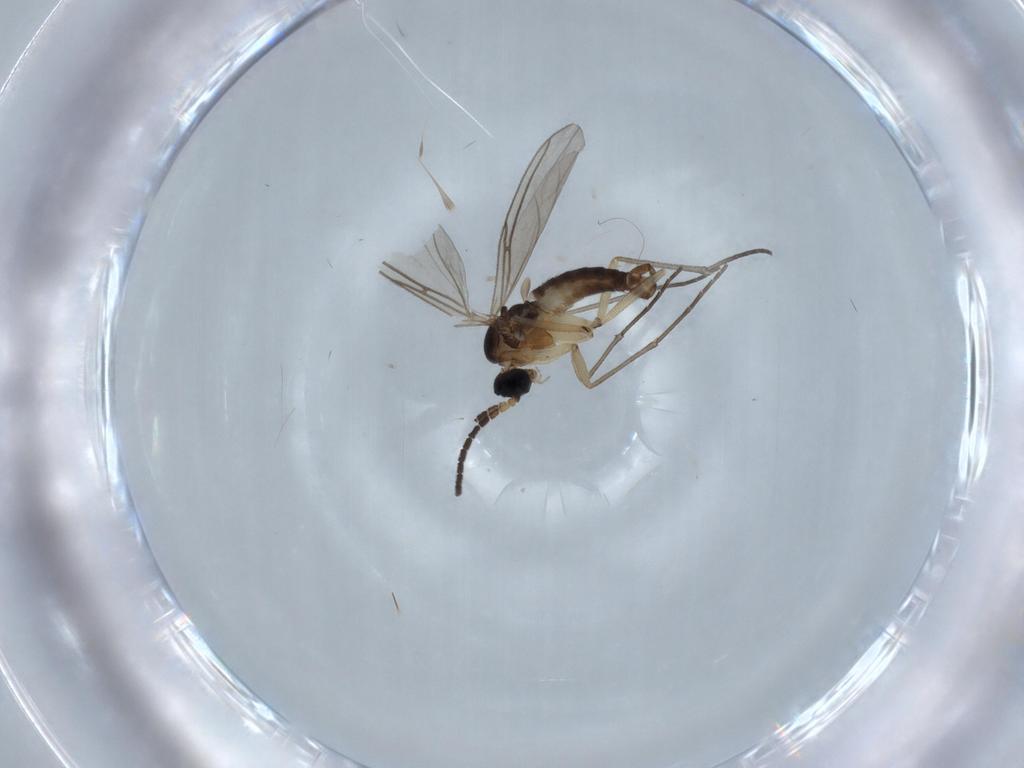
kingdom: Animalia
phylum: Arthropoda
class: Insecta
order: Diptera
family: Sciaridae
